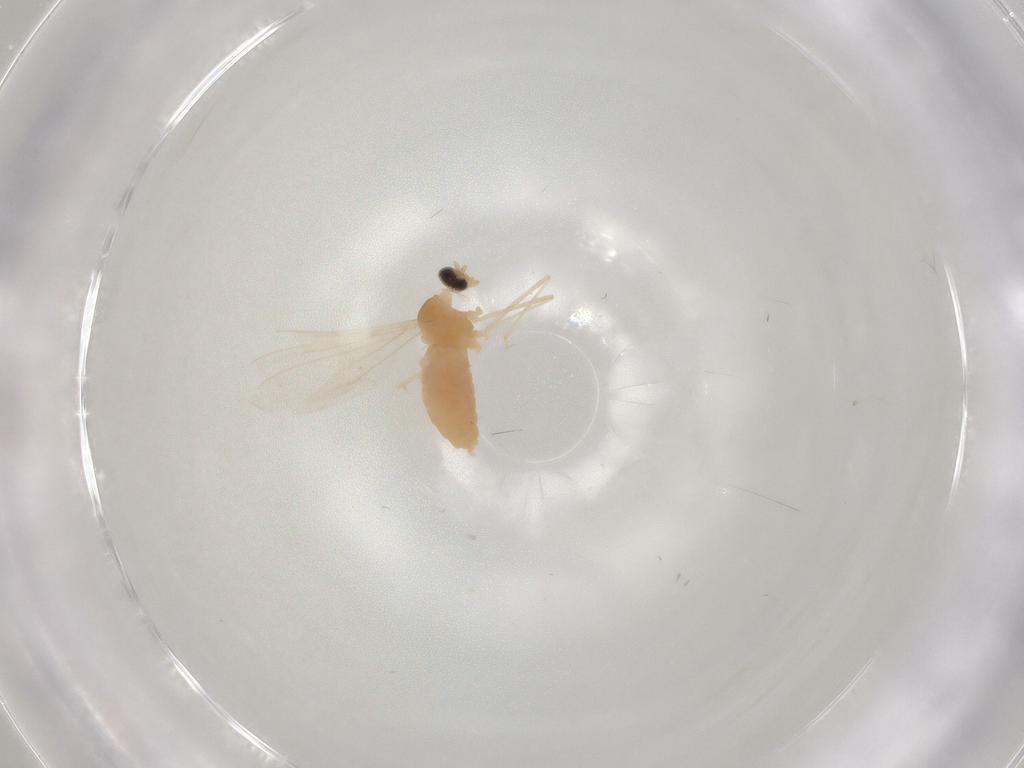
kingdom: Animalia
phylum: Arthropoda
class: Insecta
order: Diptera
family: Cecidomyiidae
